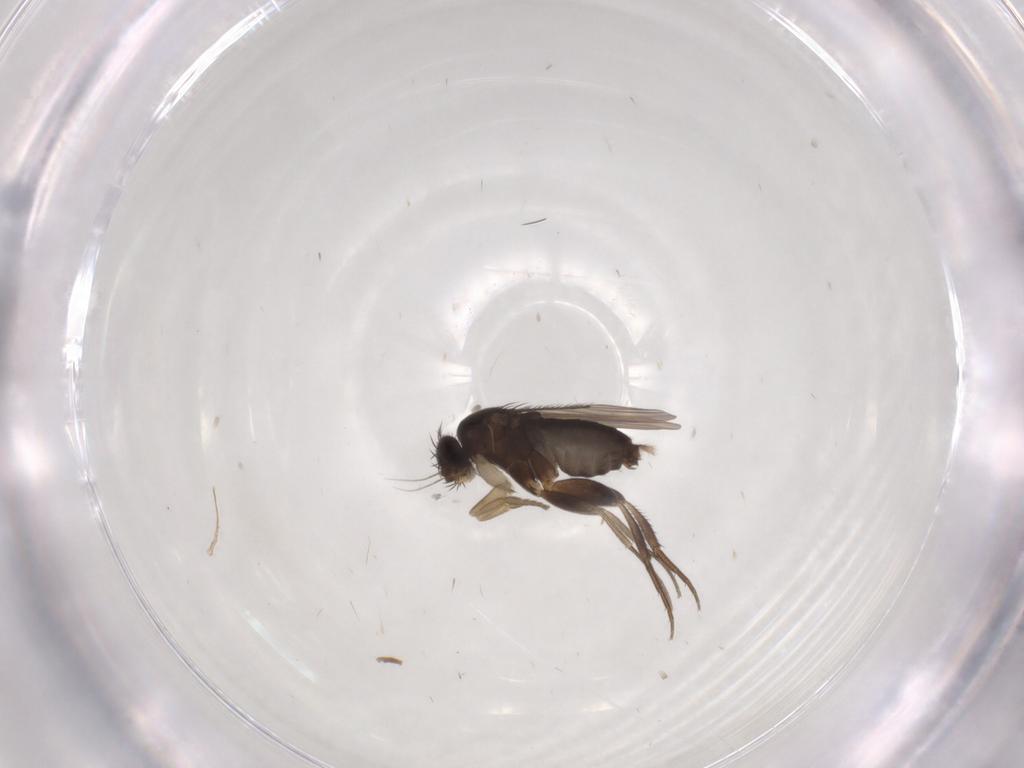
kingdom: Animalia
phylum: Arthropoda
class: Insecta
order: Diptera
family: Phoridae
